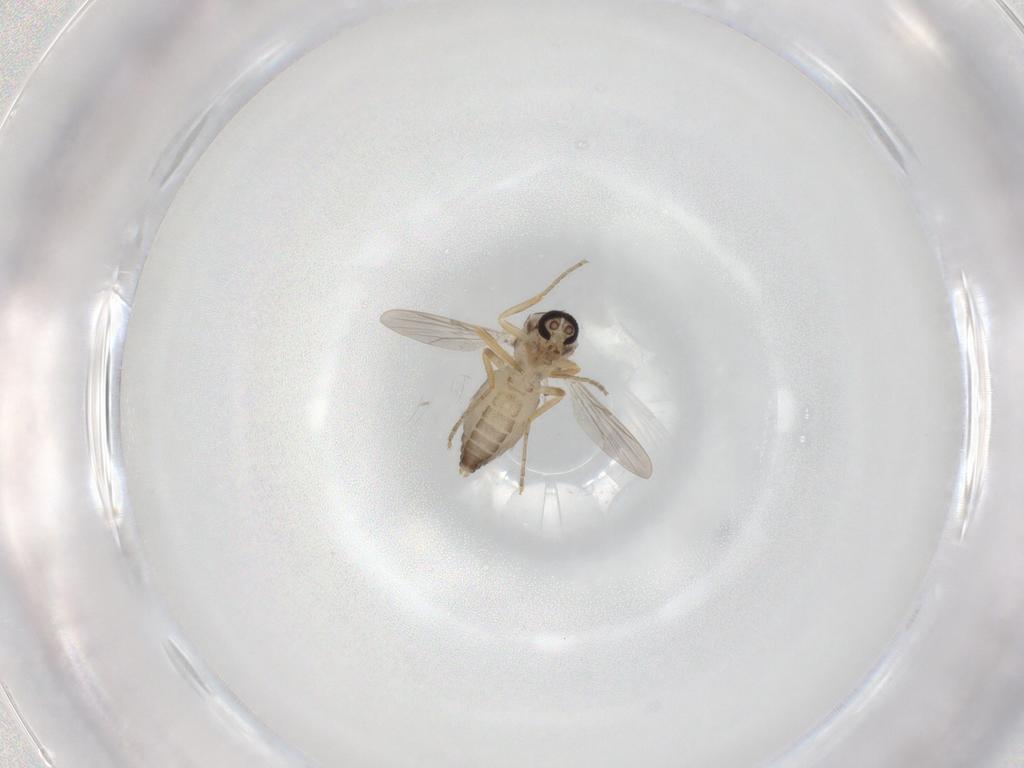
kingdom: Animalia
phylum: Arthropoda
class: Insecta
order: Diptera
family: Ceratopogonidae
